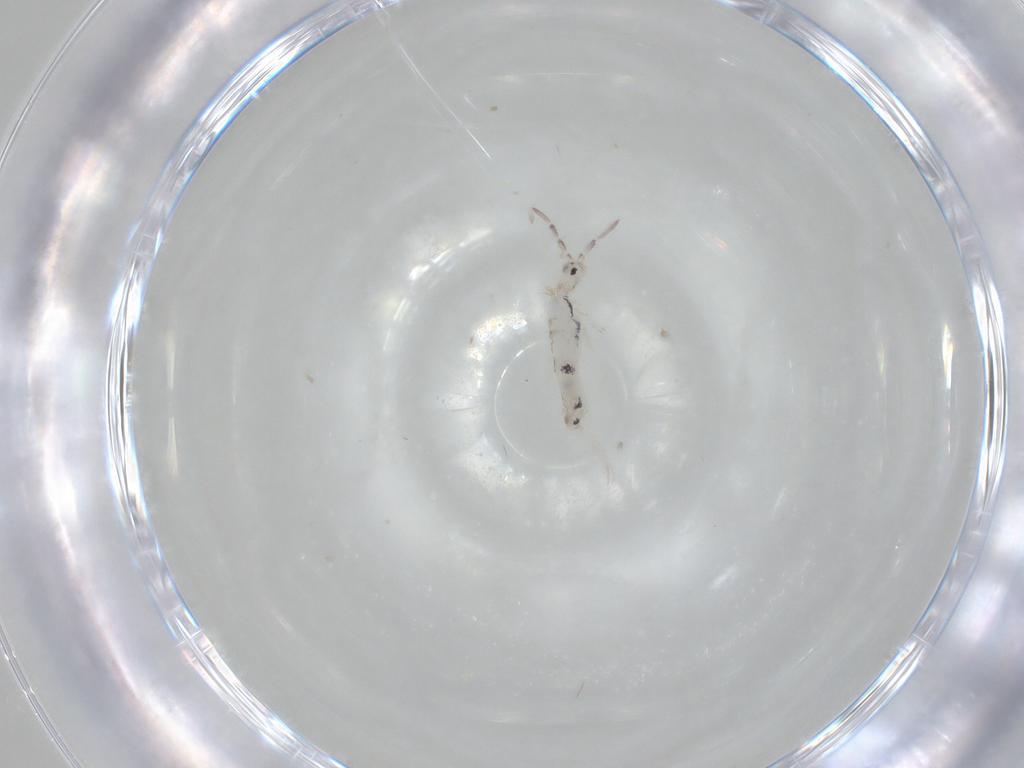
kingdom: Animalia
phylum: Arthropoda
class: Collembola
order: Entomobryomorpha
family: Entomobryidae
